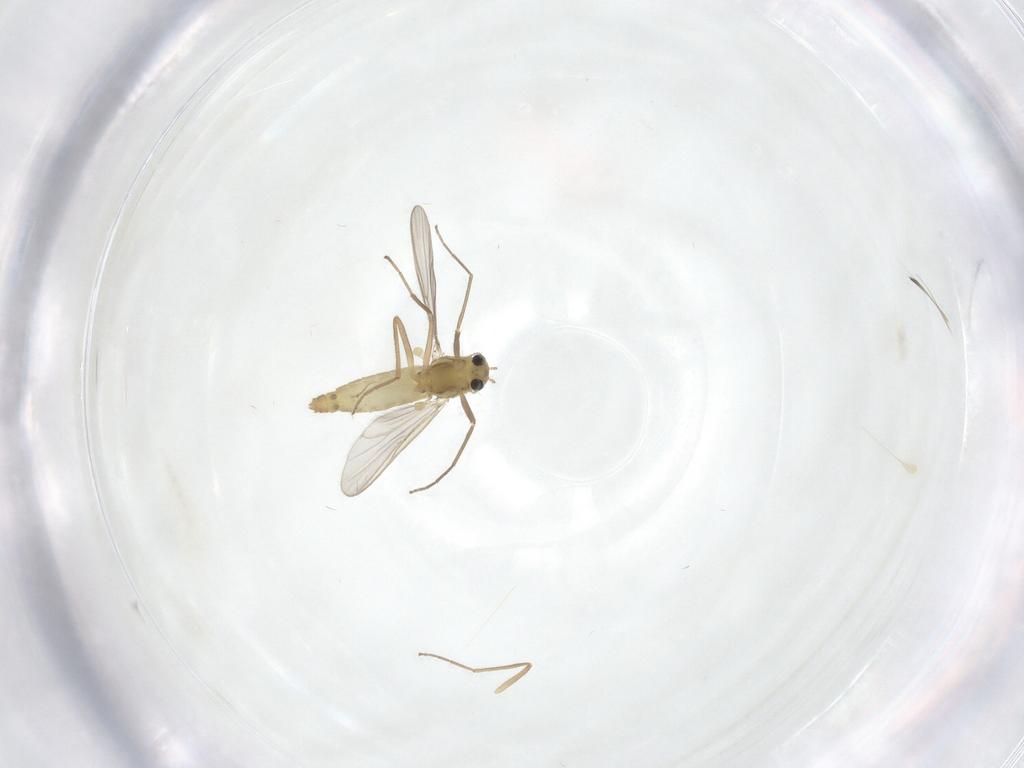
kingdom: Animalia
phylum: Arthropoda
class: Insecta
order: Diptera
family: Chironomidae
